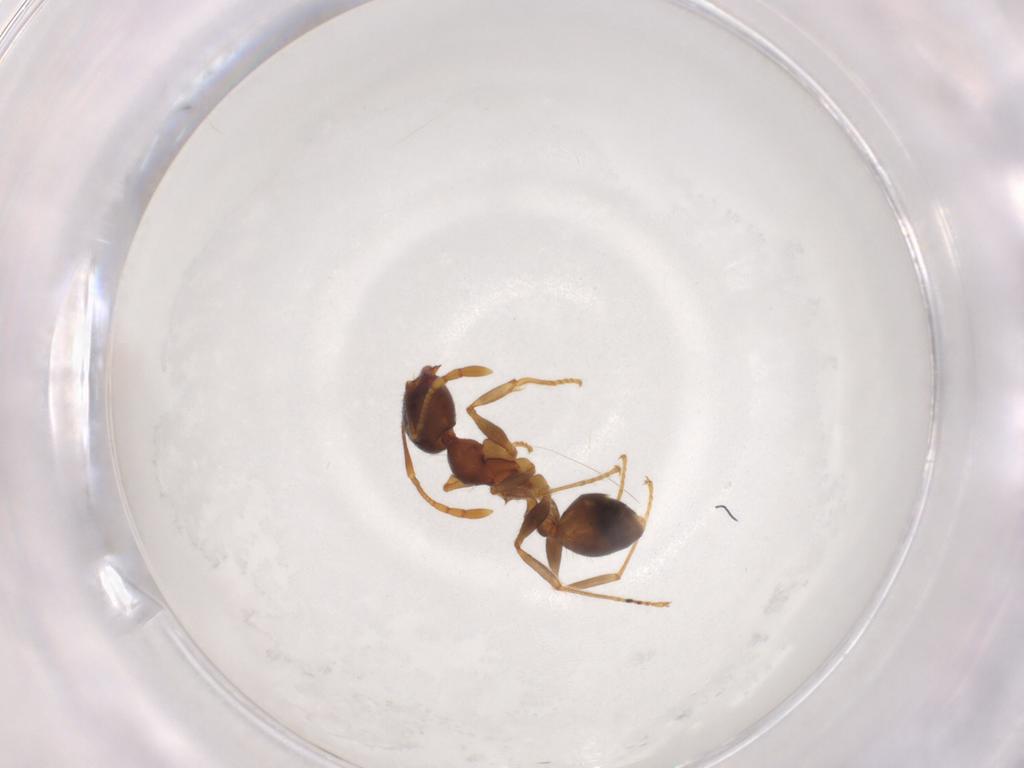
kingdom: Animalia
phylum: Arthropoda
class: Insecta
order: Hymenoptera
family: Formicidae
